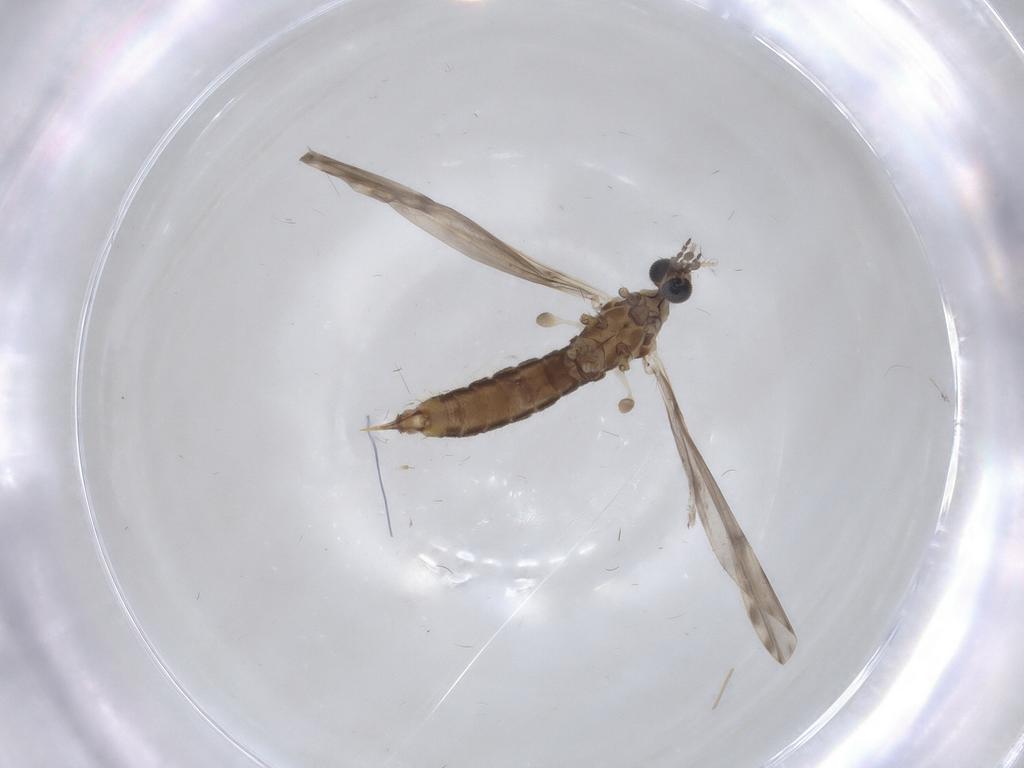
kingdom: Animalia
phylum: Arthropoda
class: Insecta
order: Diptera
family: Limoniidae
